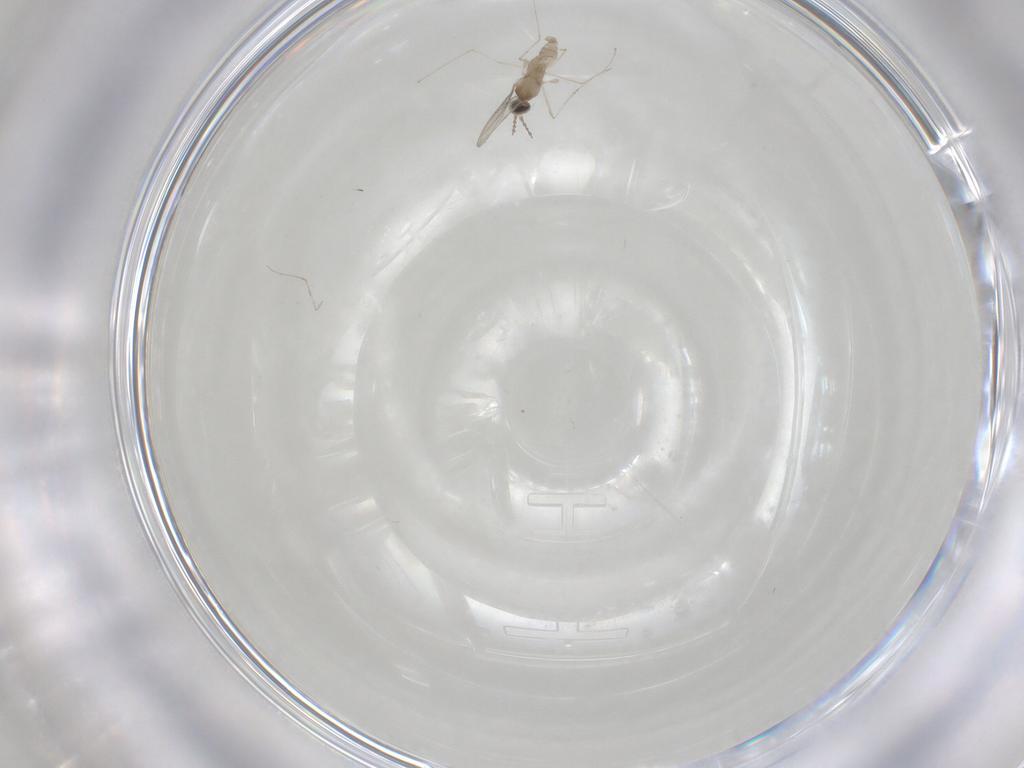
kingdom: Animalia
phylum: Arthropoda
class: Insecta
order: Diptera
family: Cecidomyiidae
